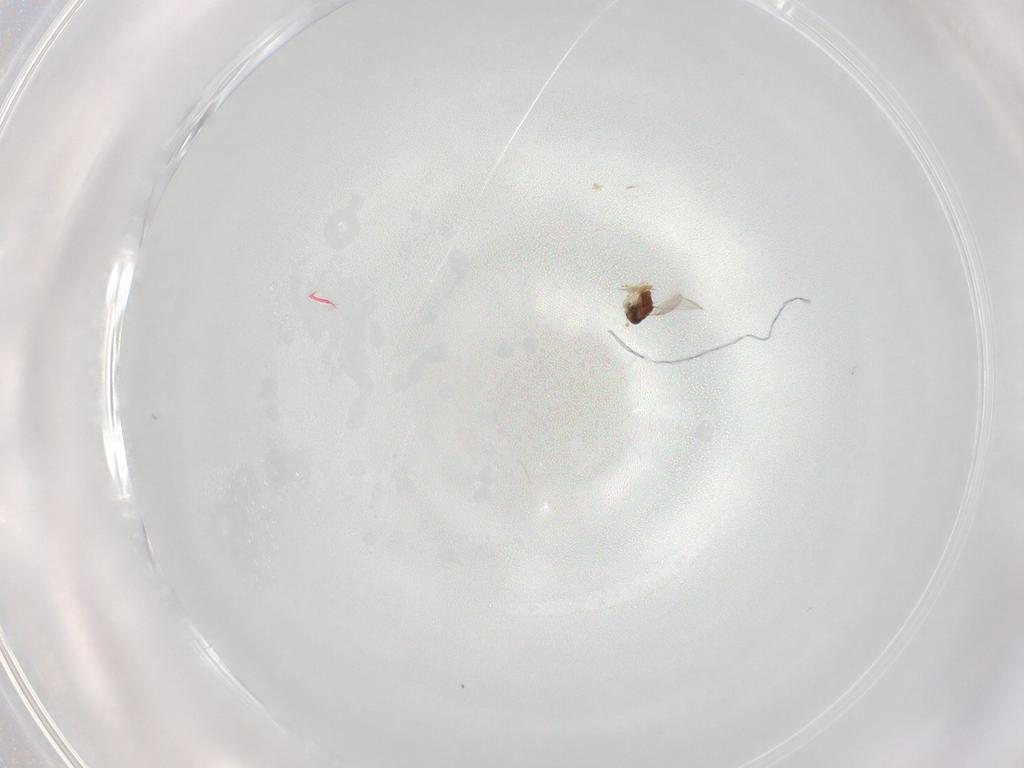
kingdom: Animalia
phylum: Arthropoda
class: Insecta
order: Hymenoptera
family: Encyrtidae
